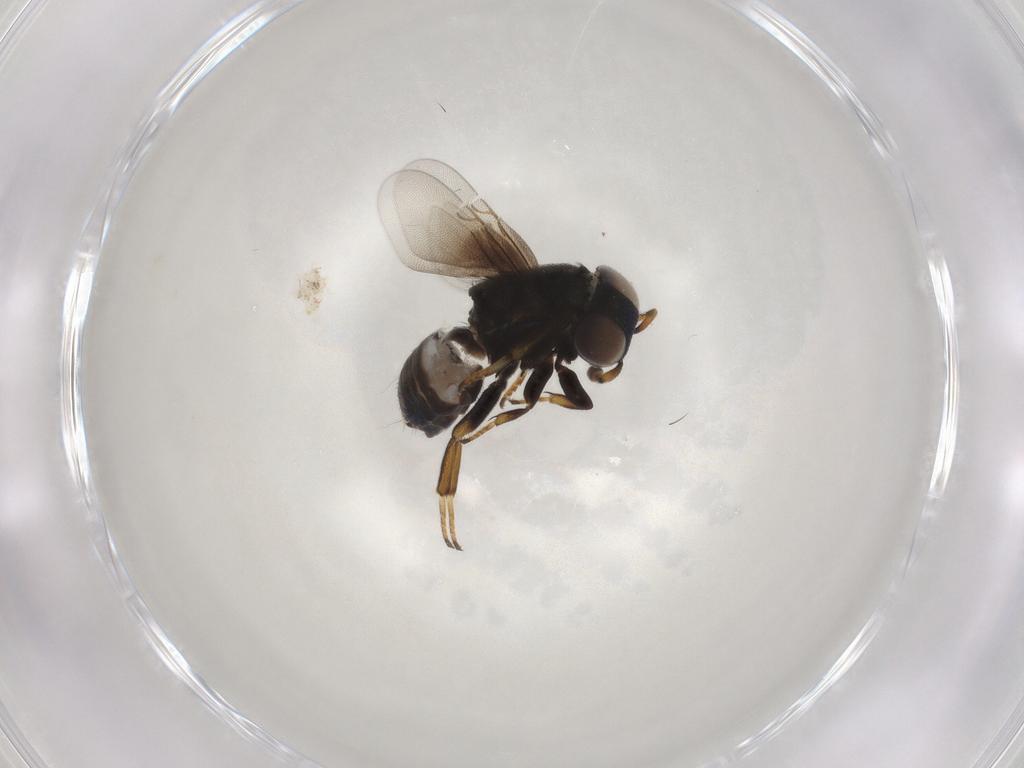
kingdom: Animalia
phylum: Arthropoda
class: Insecta
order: Hymenoptera
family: Encyrtidae
